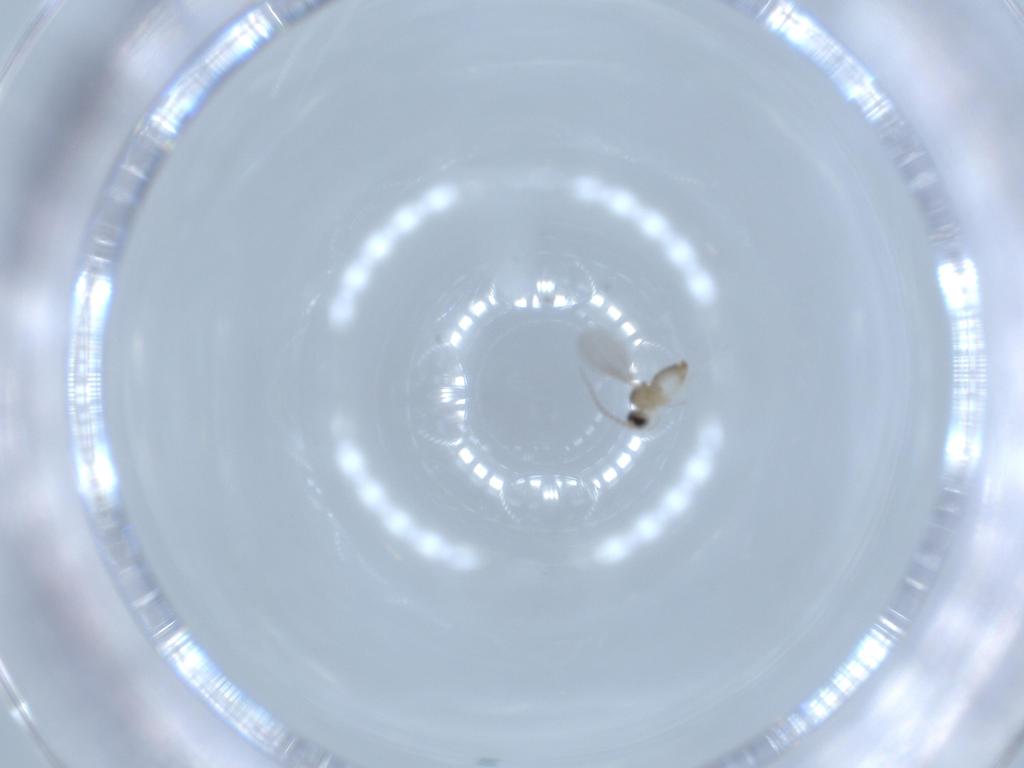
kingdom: Animalia
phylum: Arthropoda
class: Insecta
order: Diptera
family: Cecidomyiidae
